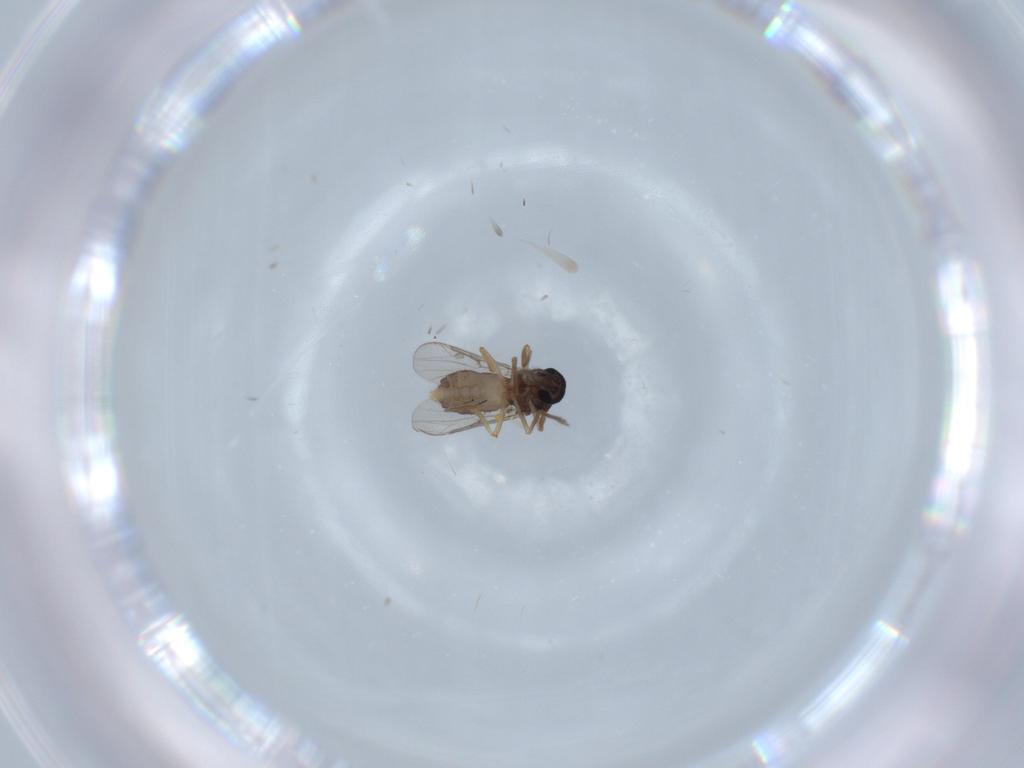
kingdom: Animalia
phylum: Arthropoda
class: Insecta
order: Diptera
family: Ceratopogonidae
